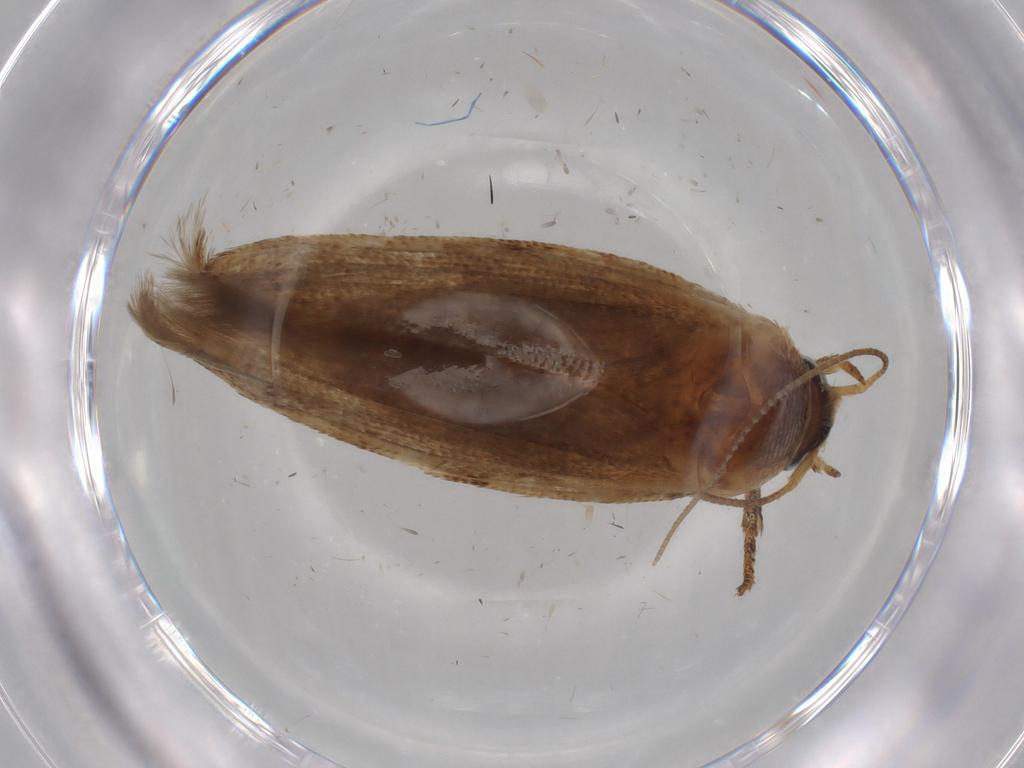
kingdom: Animalia
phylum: Arthropoda
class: Insecta
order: Lepidoptera
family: Blastobasidae
